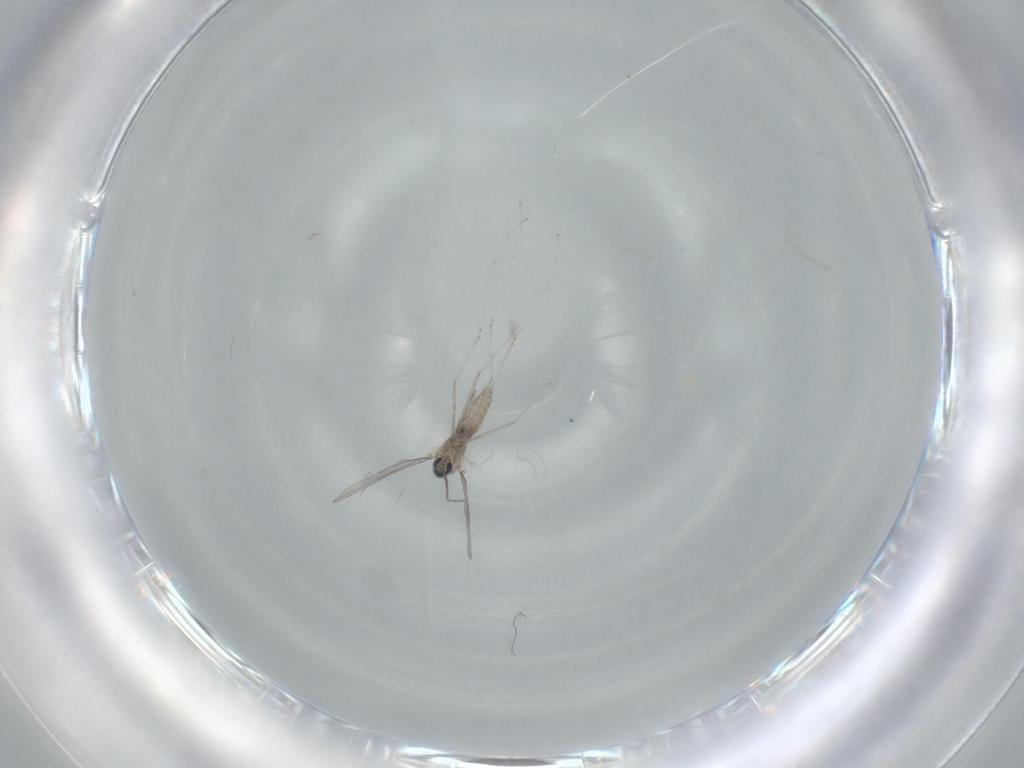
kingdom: Animalia
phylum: Arthropoda
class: Insecta
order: Diptera
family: Cecidomyiidae
